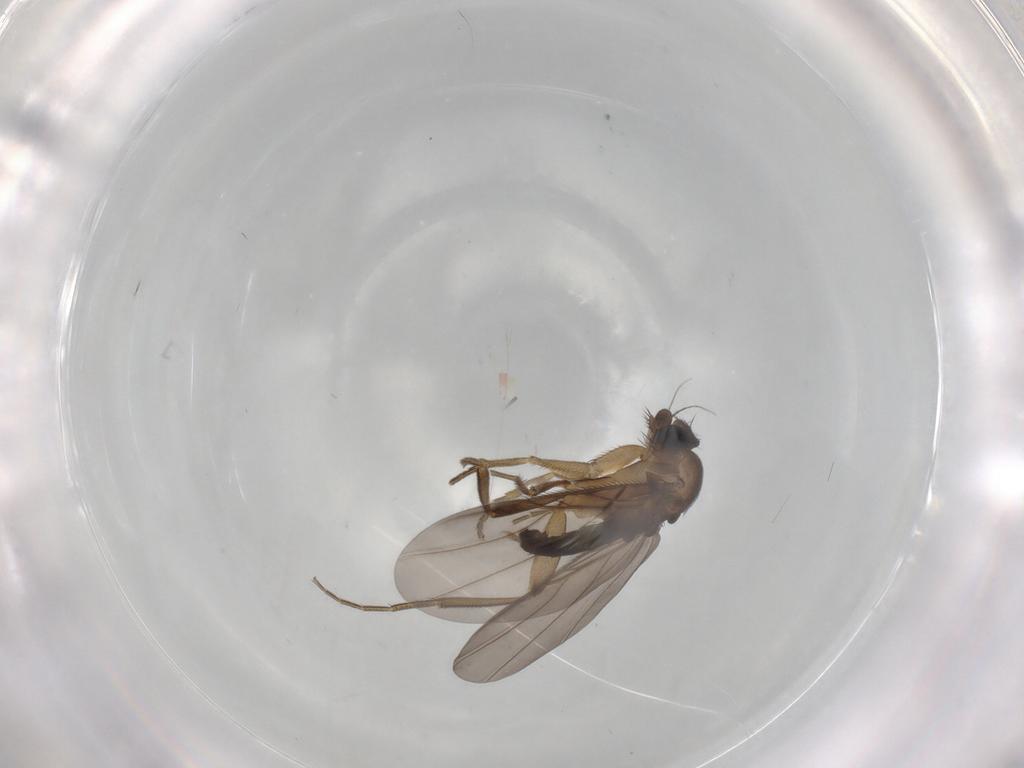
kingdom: Animalia
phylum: Arthropoda
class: Insecta
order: Diptera
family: Phoridae
